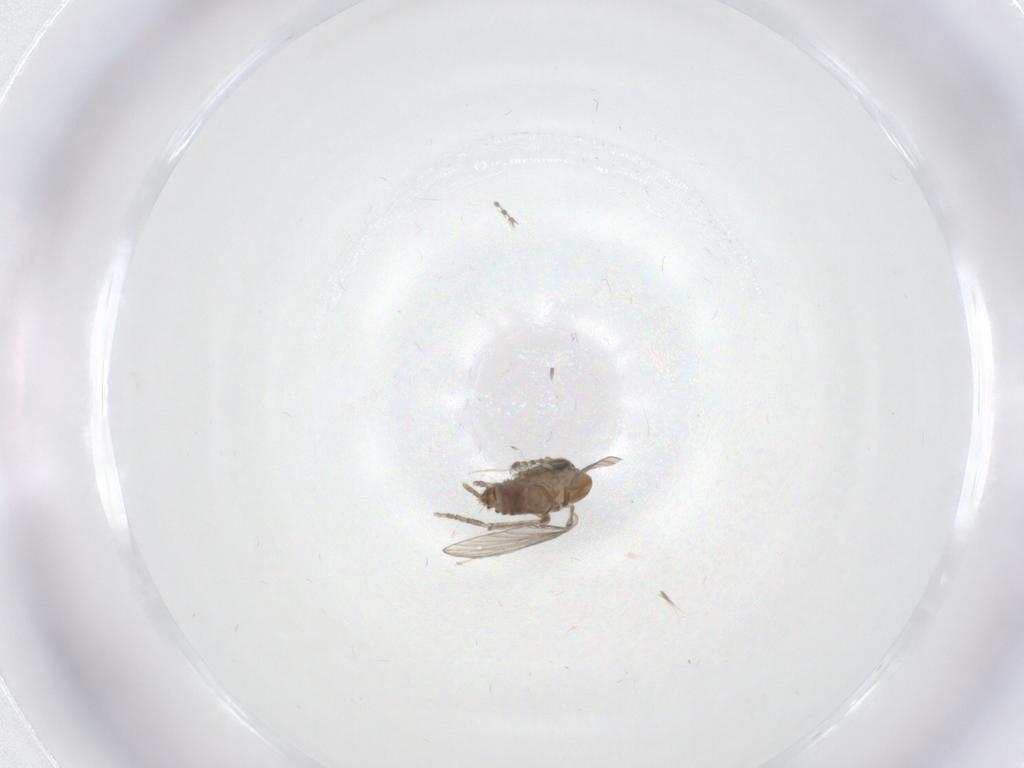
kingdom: Animalia
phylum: Arthropoda
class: Insecta
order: Diptera
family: Psychodidae
